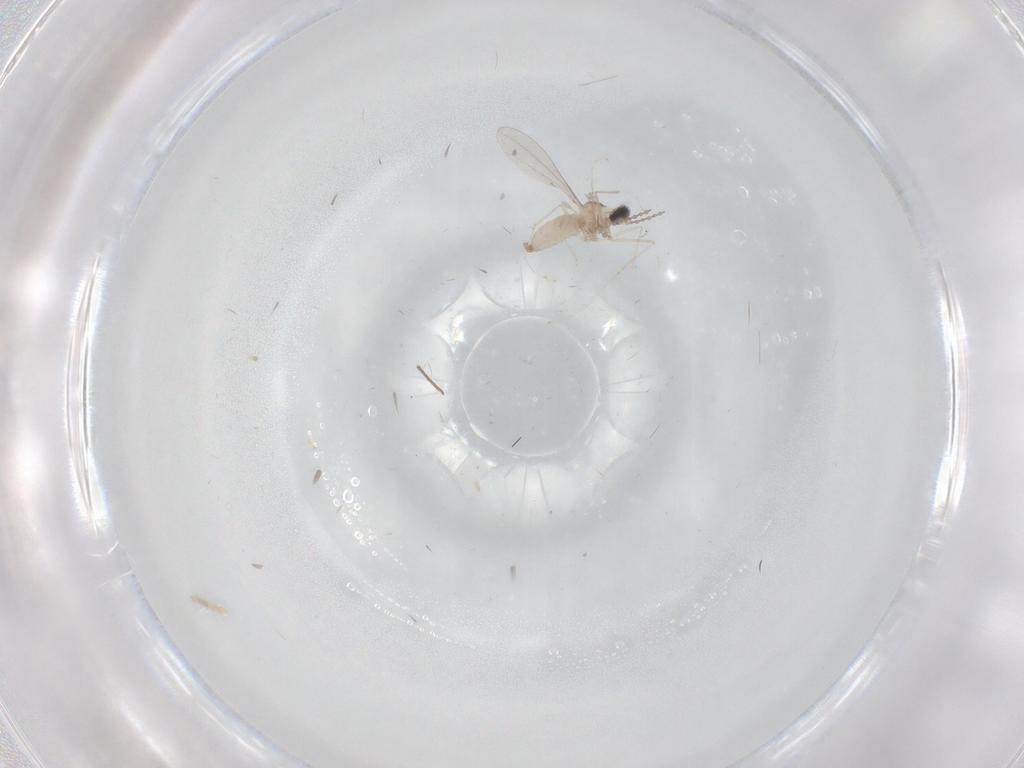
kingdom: Animalia
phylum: Arthropoda
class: Insecta
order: Diptera
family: Cecidomyiidae
